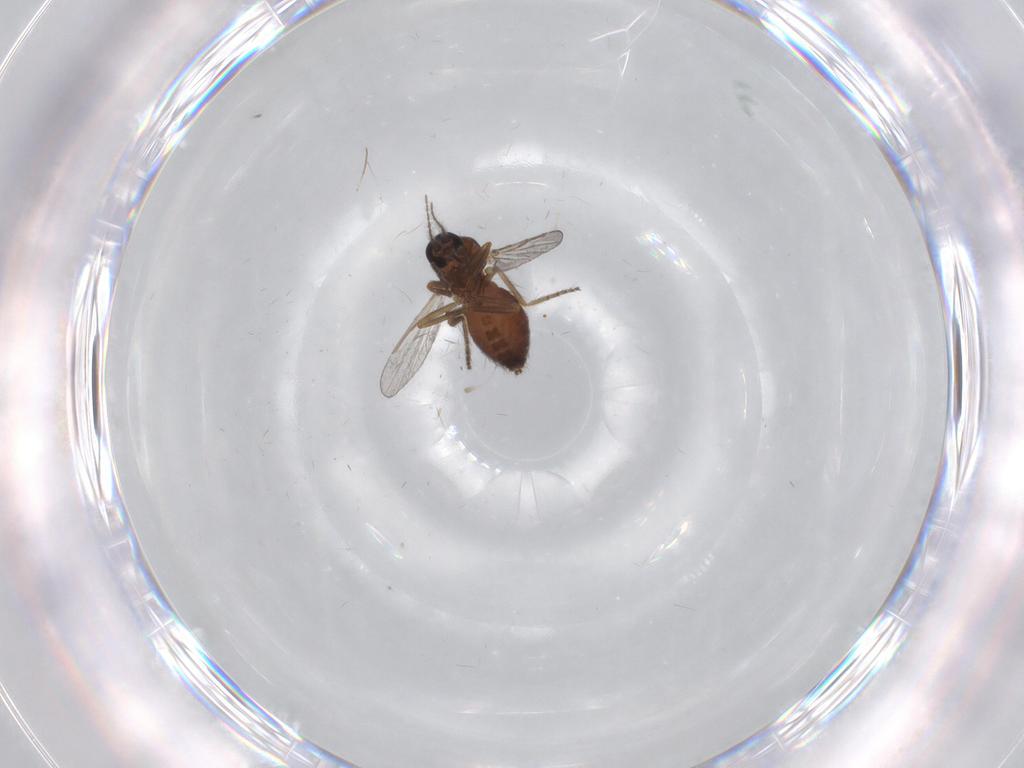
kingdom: Animalia
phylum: Arthropoda
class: Insecta
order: Diptera
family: Ceratopogonidae
